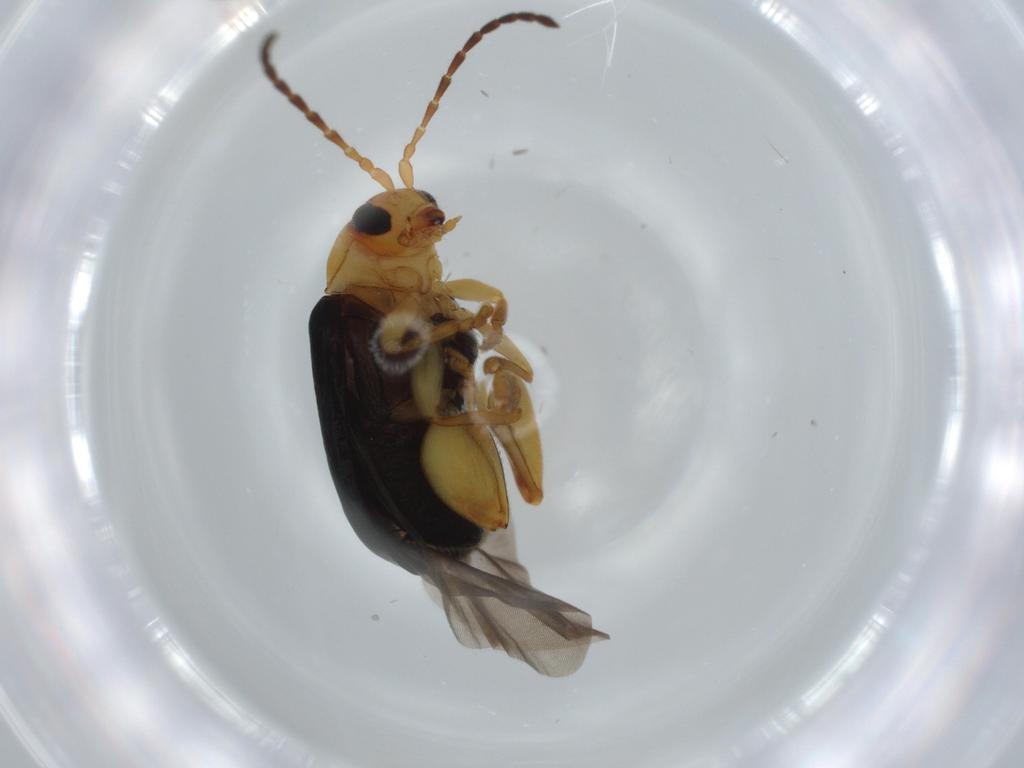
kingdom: Animalia
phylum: Arthropoda
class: Insecta
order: Coleoptera
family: Chrysomelidae
